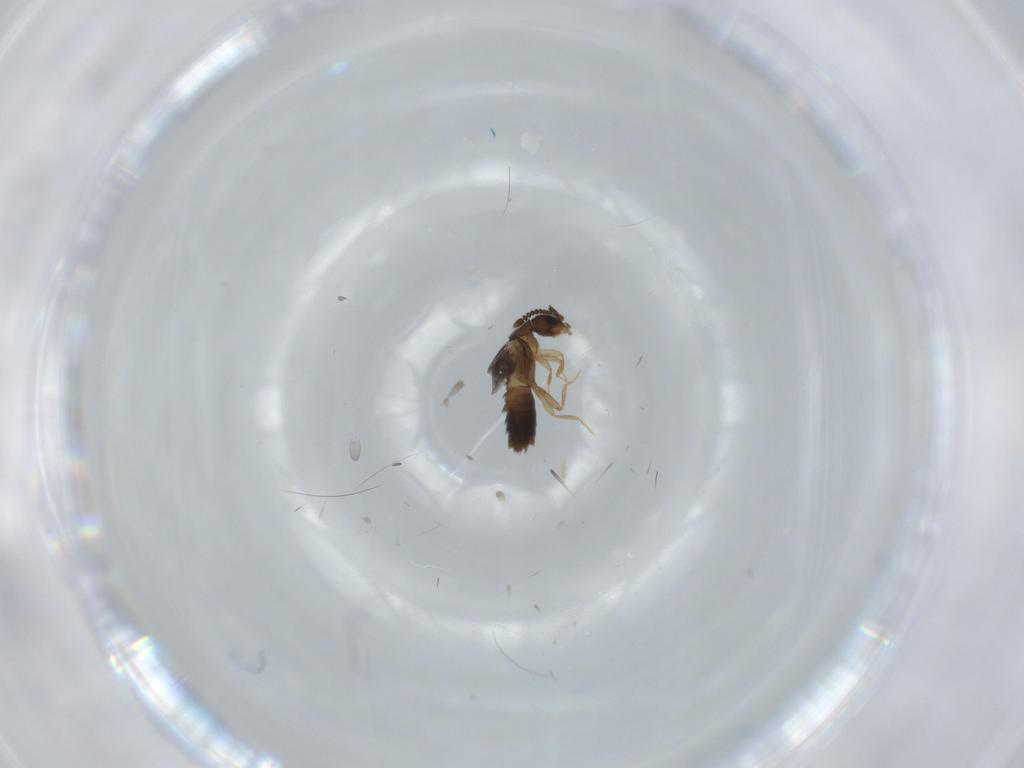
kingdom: Animalia
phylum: Arthropoda
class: Insecta
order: Coleoptera
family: Staphylinidae
